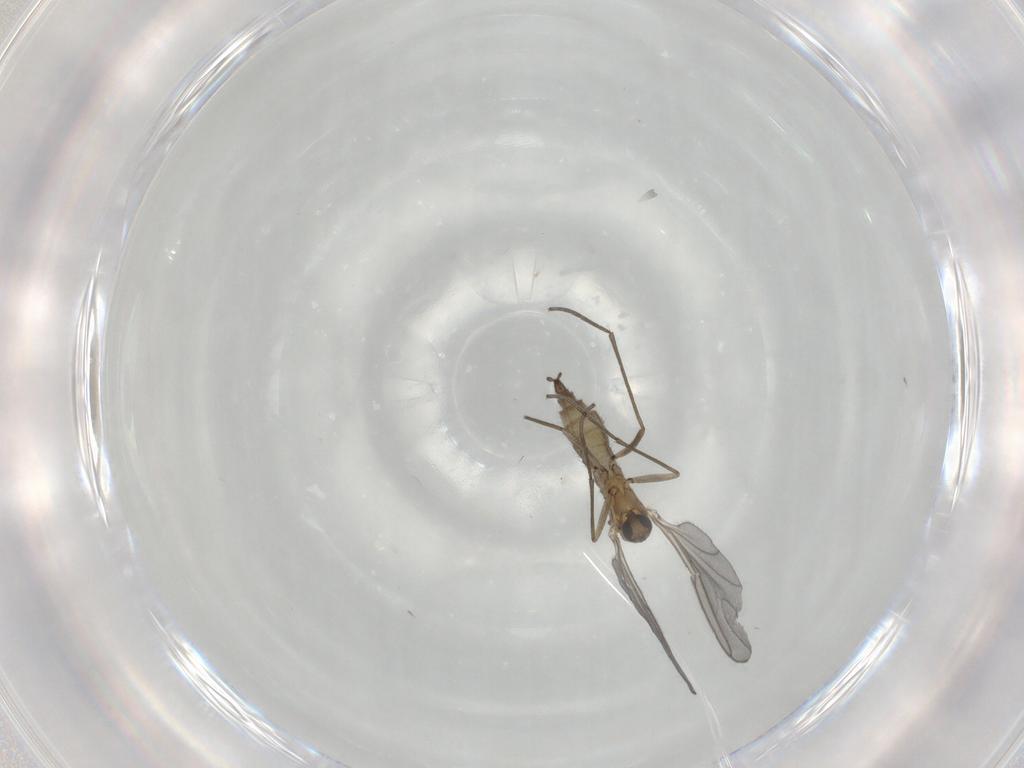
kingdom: Animalia
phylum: Arthropoda
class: Insecta
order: Diptera
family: Sciaridae
